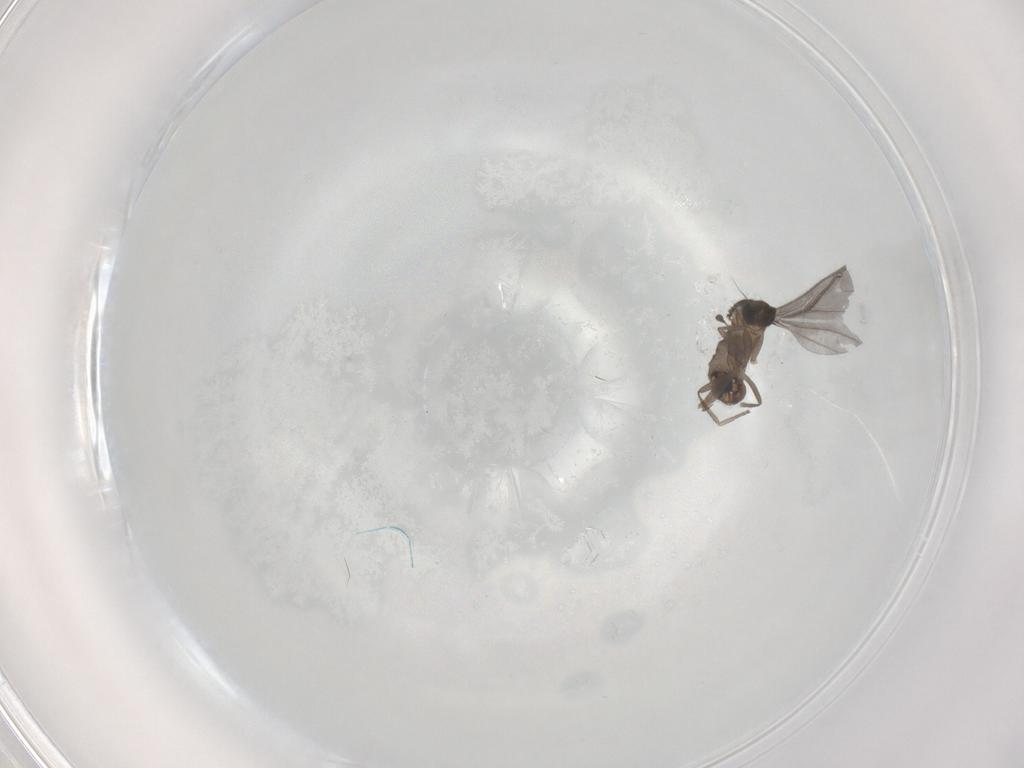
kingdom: Animalia
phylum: Arthropoda
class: Insecta
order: Diptera
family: Phoridae
